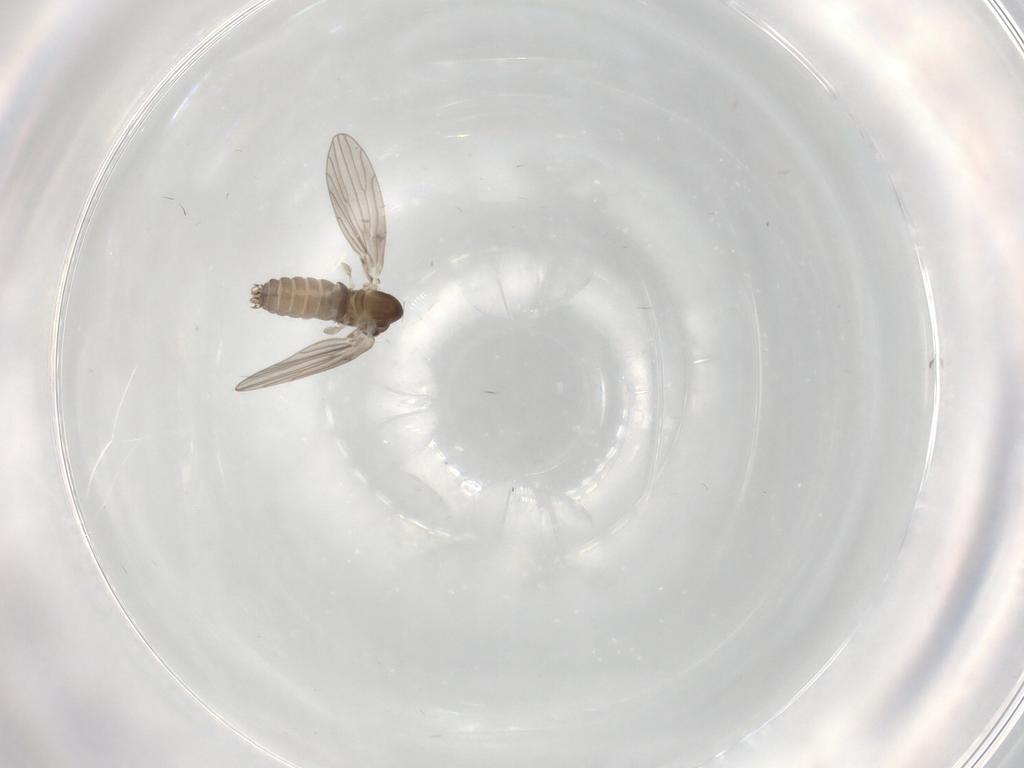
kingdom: Animalia
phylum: Arthropoda
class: Insecta
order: Diptera
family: Psychodidae
